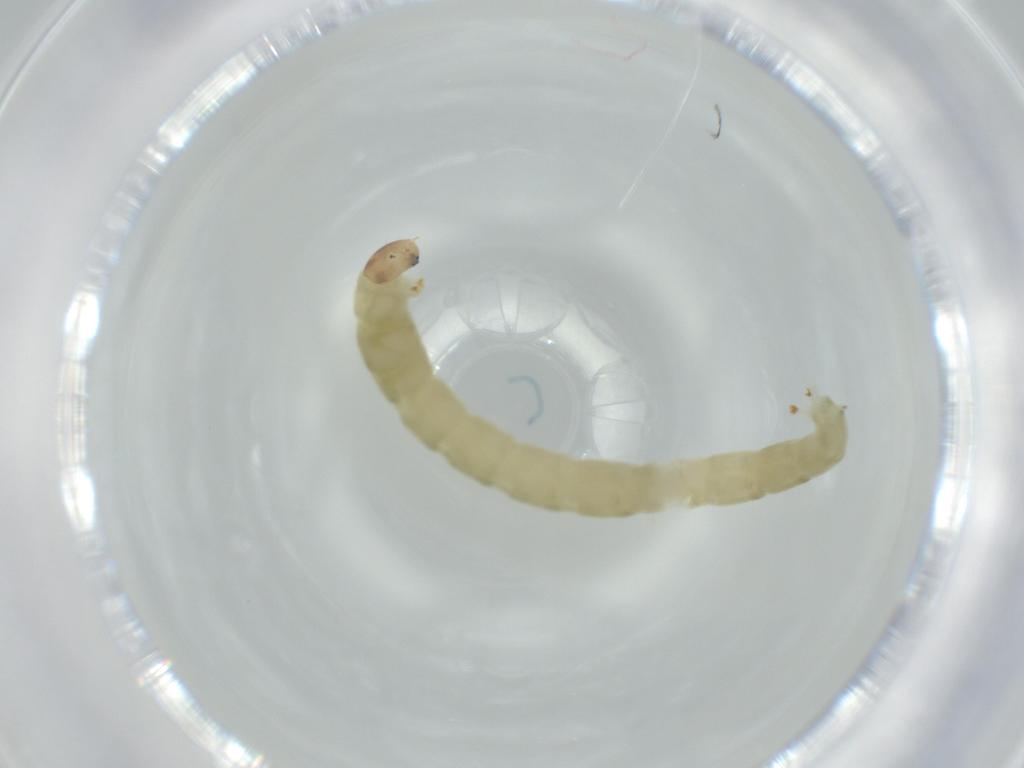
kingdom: Animalia
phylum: Arthropoda
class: Insecta
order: Diptera
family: Chironomidae
